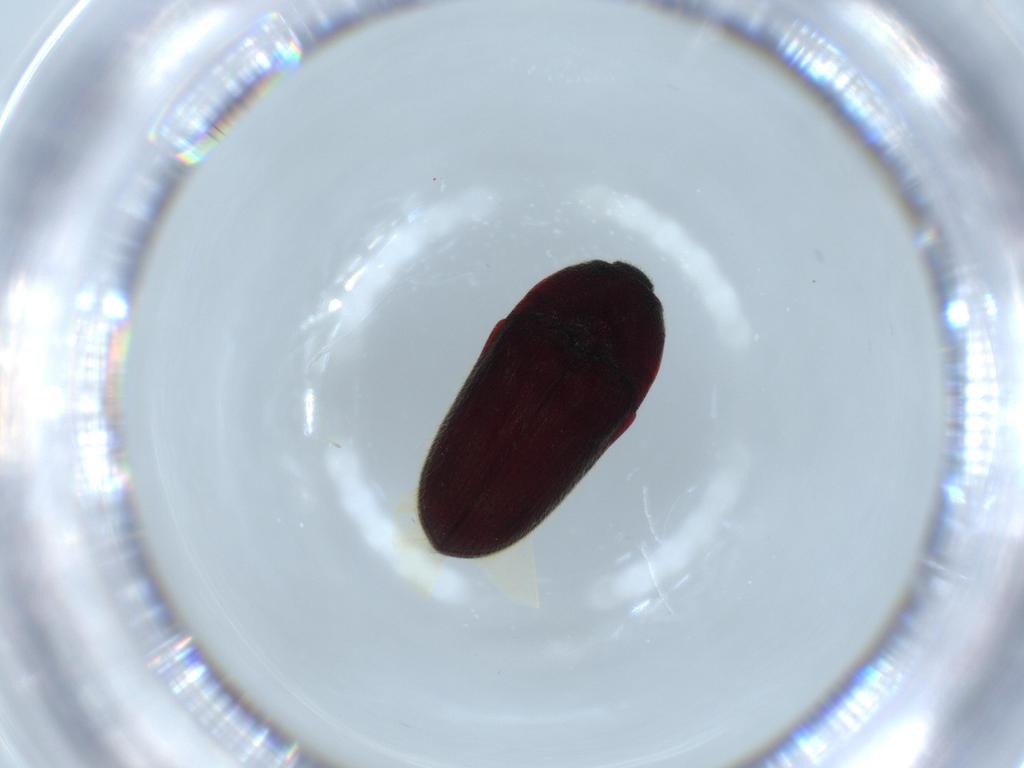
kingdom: Animalia
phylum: Arthropoda
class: Insecta
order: Coleoptera
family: Throscidae
